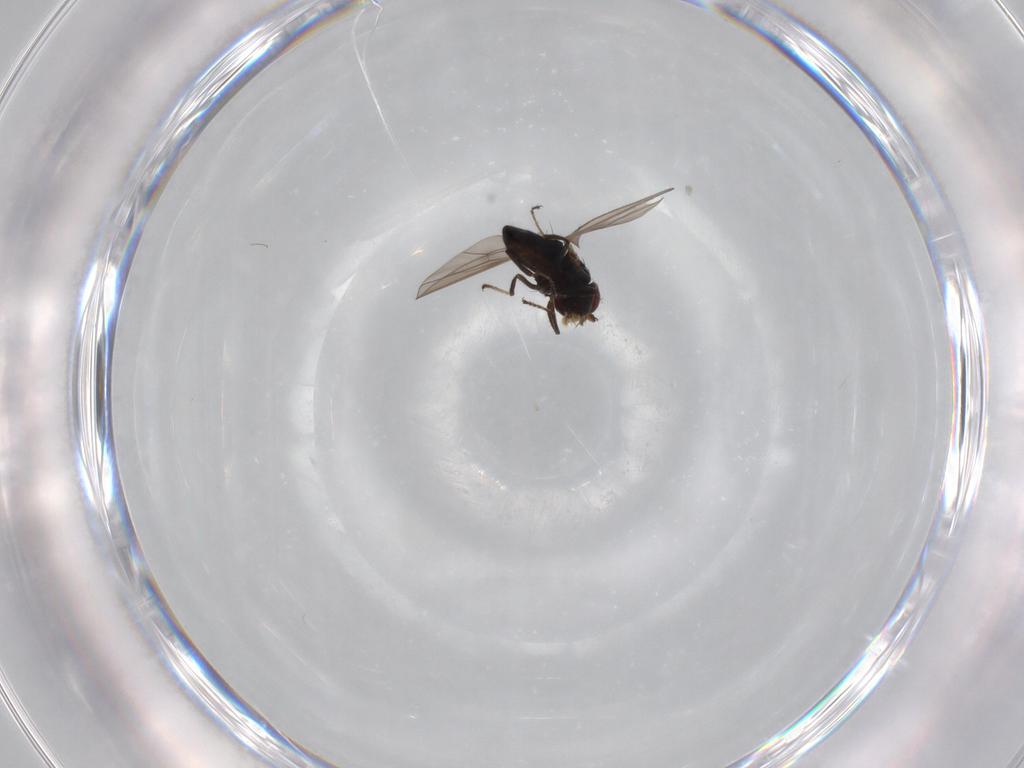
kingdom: Animalia
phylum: Arthropoda
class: Insecta
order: Diptera
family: Ephydridae
